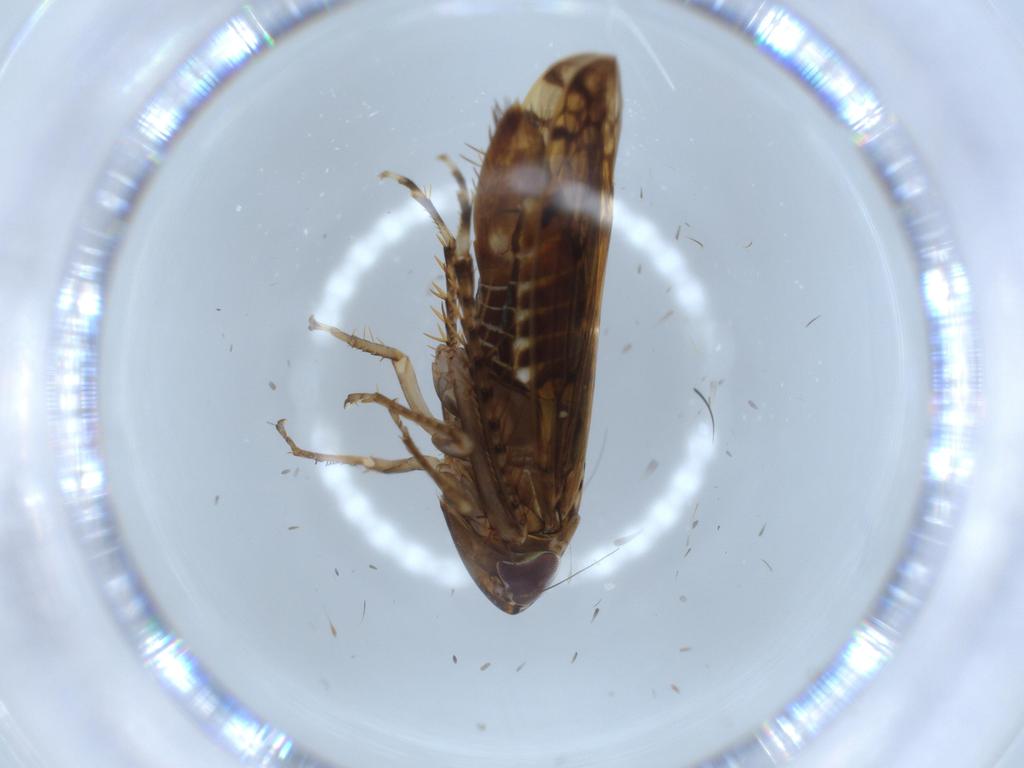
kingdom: Animalia
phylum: Arthropoda
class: Insecta
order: Hemiptera
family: Cicadellidae
